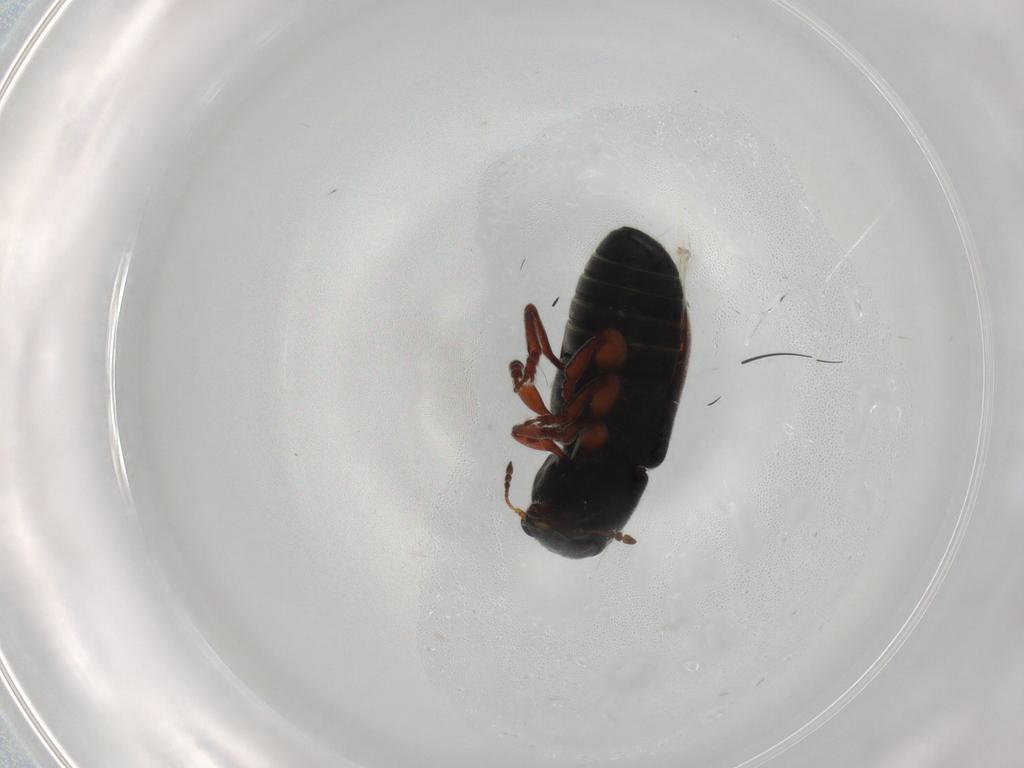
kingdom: Animalia
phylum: Arthropoda
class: Insecta
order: Coleoptera
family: Anthribidae
